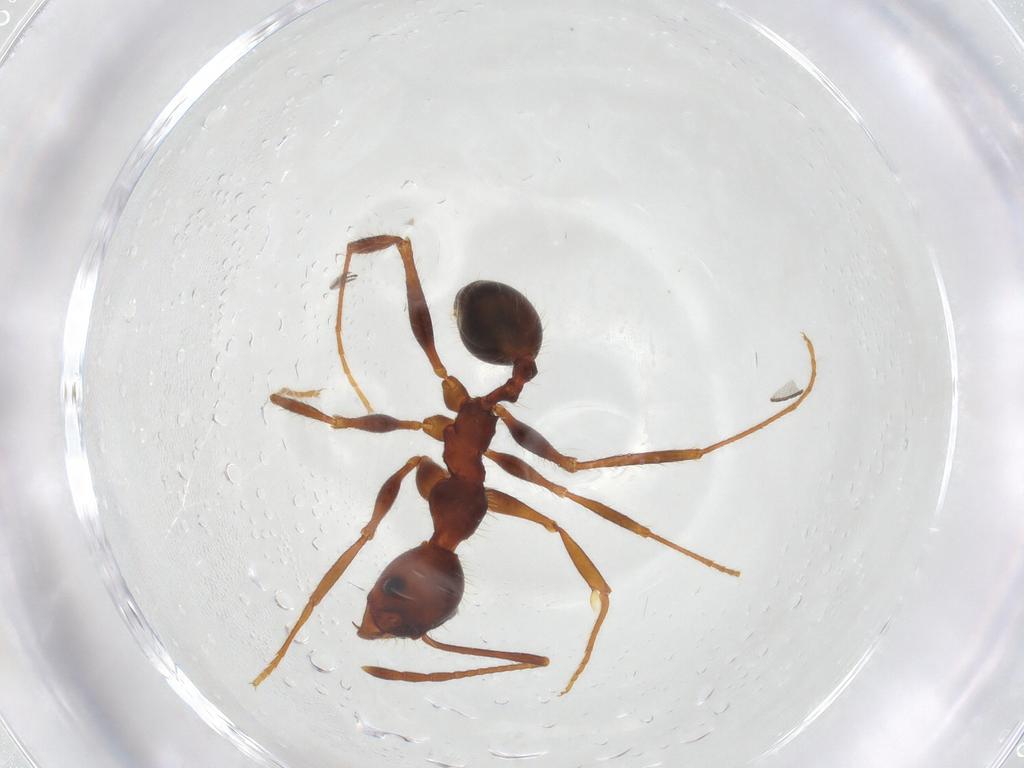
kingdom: Animalia
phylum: Arthropoda
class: Insecta
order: Hymenoptera
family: Formicidae
